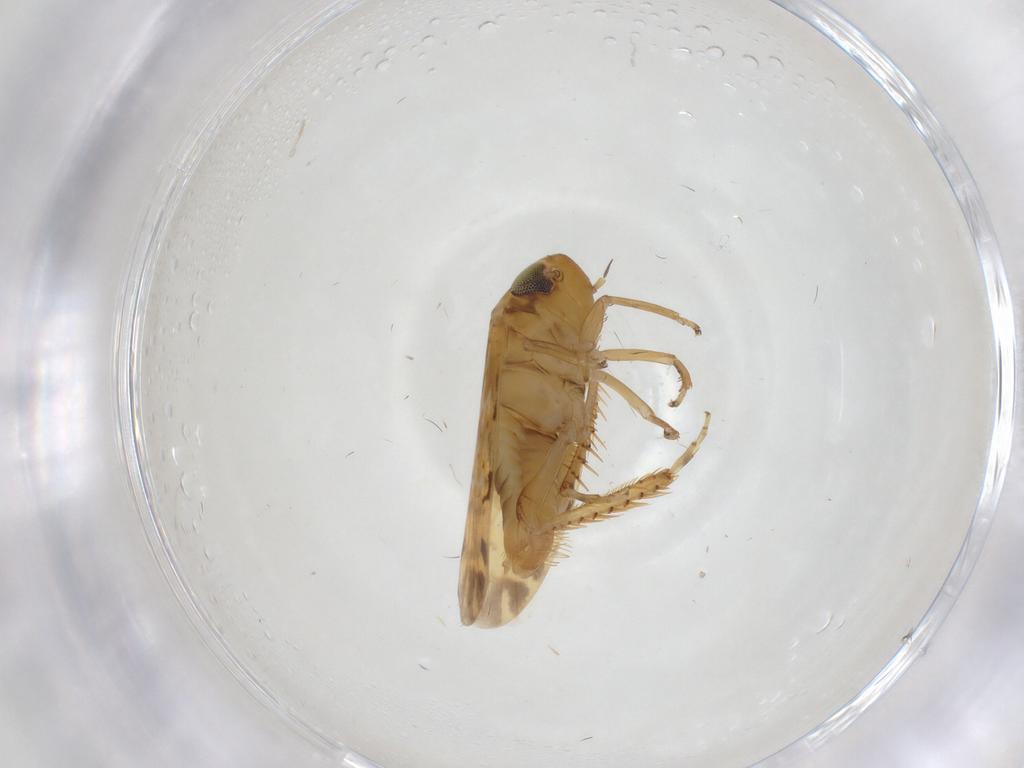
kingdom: Animalia
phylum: Arthropoda
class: Insecta
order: Hemiptera
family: Cicadellidae
